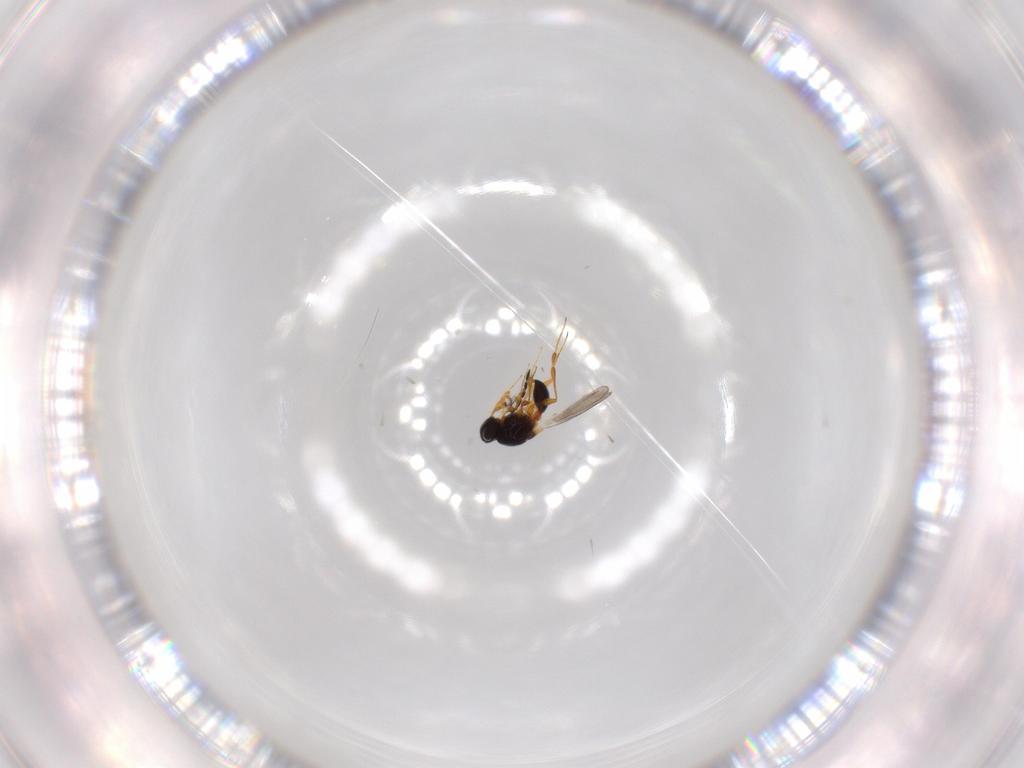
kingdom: Animalia
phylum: Arthropoda
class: Insecta
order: Hymenoptera
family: Platygastridae
